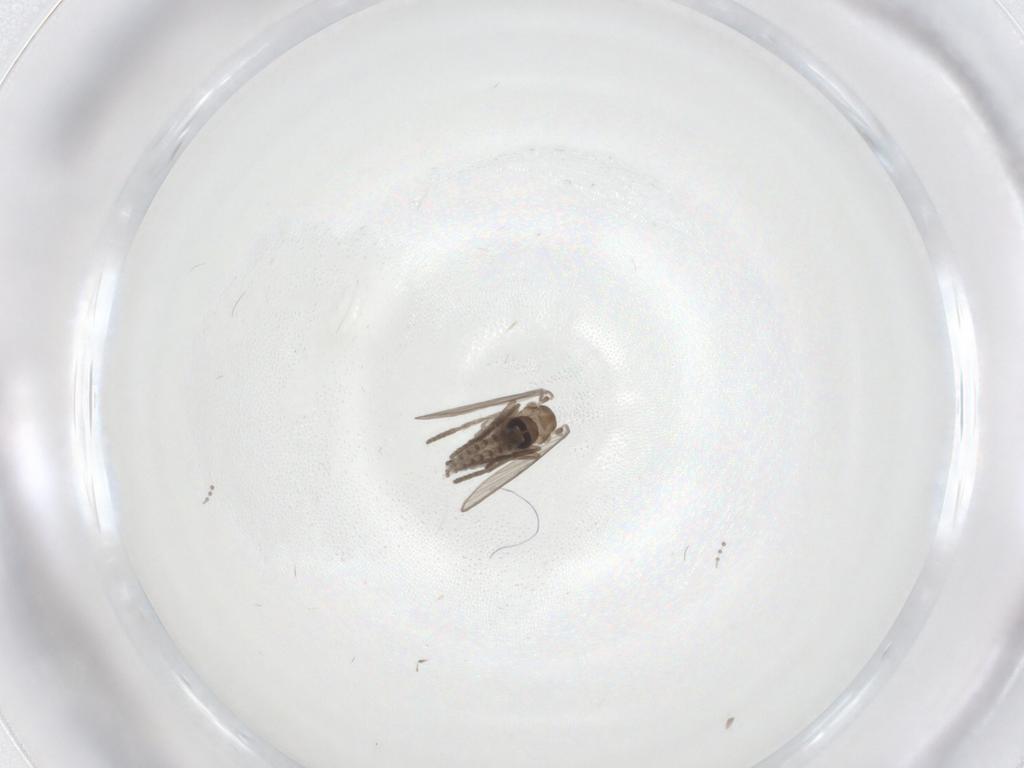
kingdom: Animalia
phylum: Arthropoda
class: Insecta
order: Diptera
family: Psychodidae
